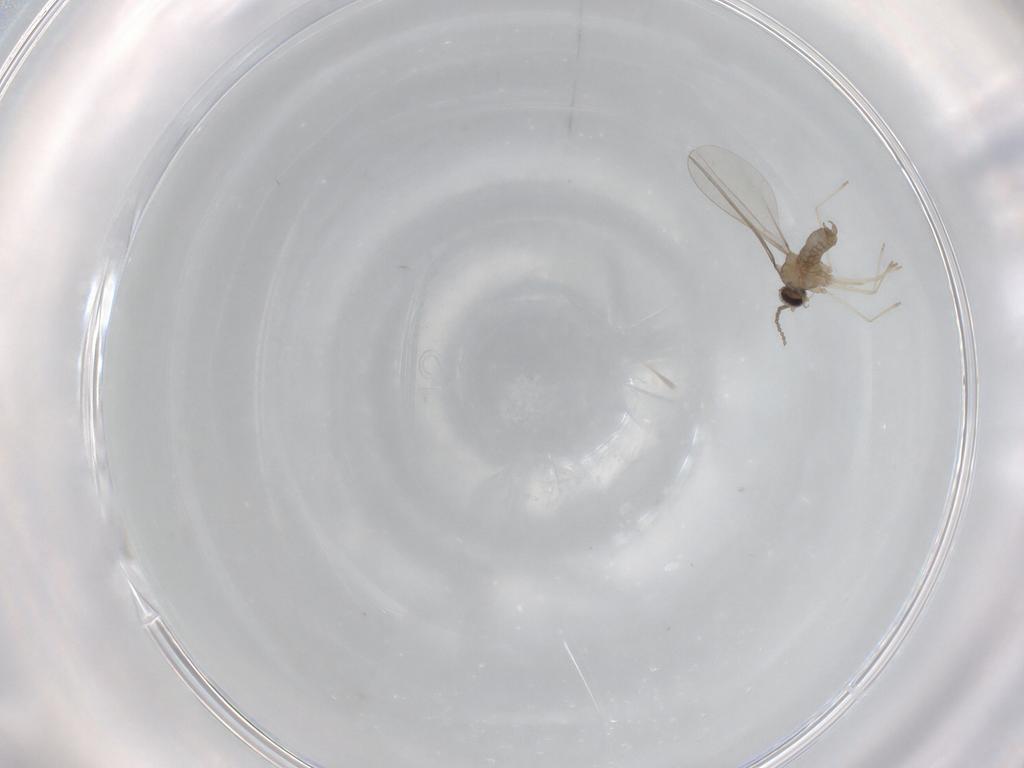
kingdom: Animalia
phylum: Arthropoda
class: Insecta
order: Diptera
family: Cecidomyiidae
